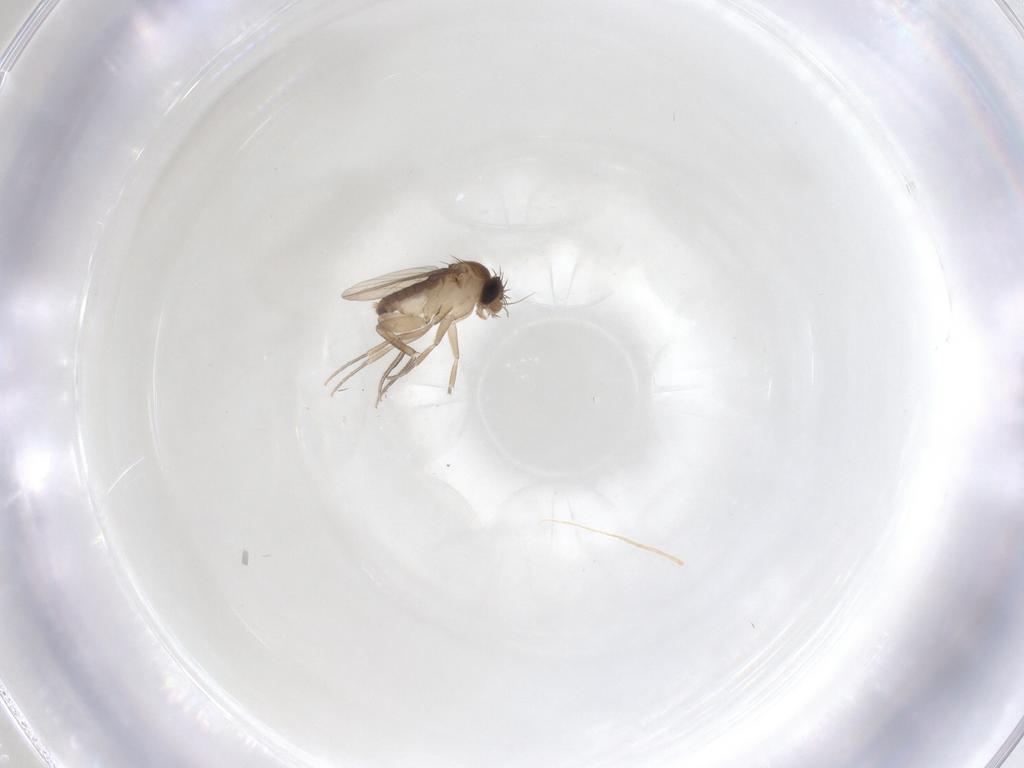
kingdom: Animalia
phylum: Arthropoda
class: Insecta
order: Diptera
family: Phoridae
